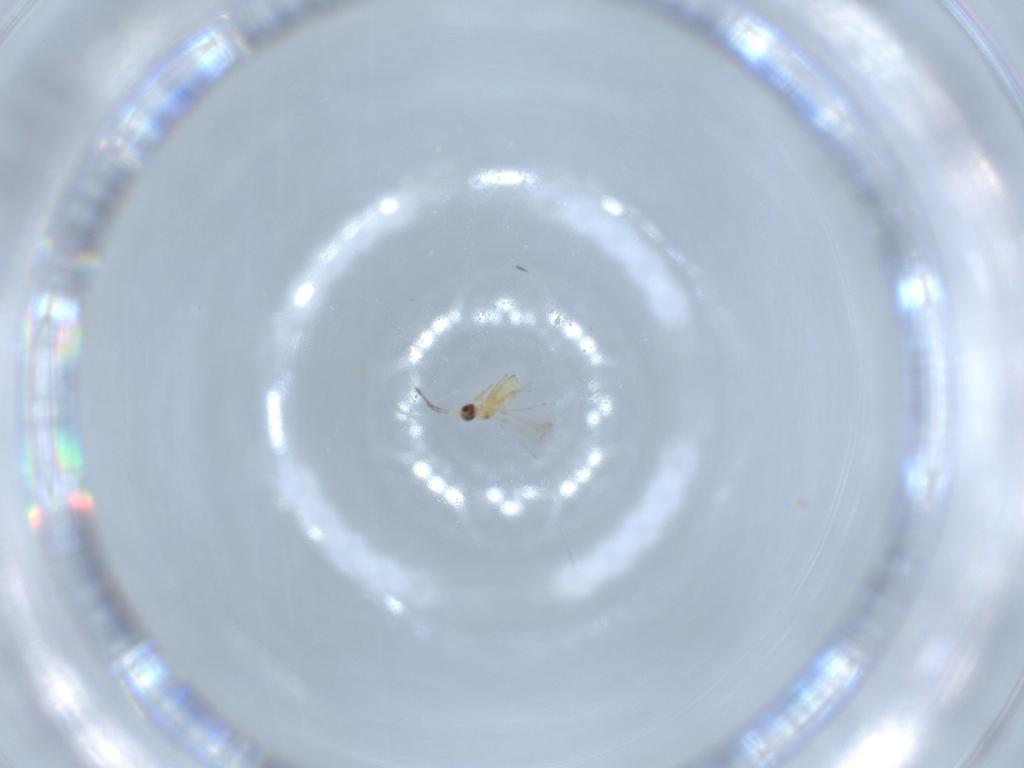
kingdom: Animalia
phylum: Arthropoda
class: Insecta
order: Hymenoptera
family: Mymaridae
